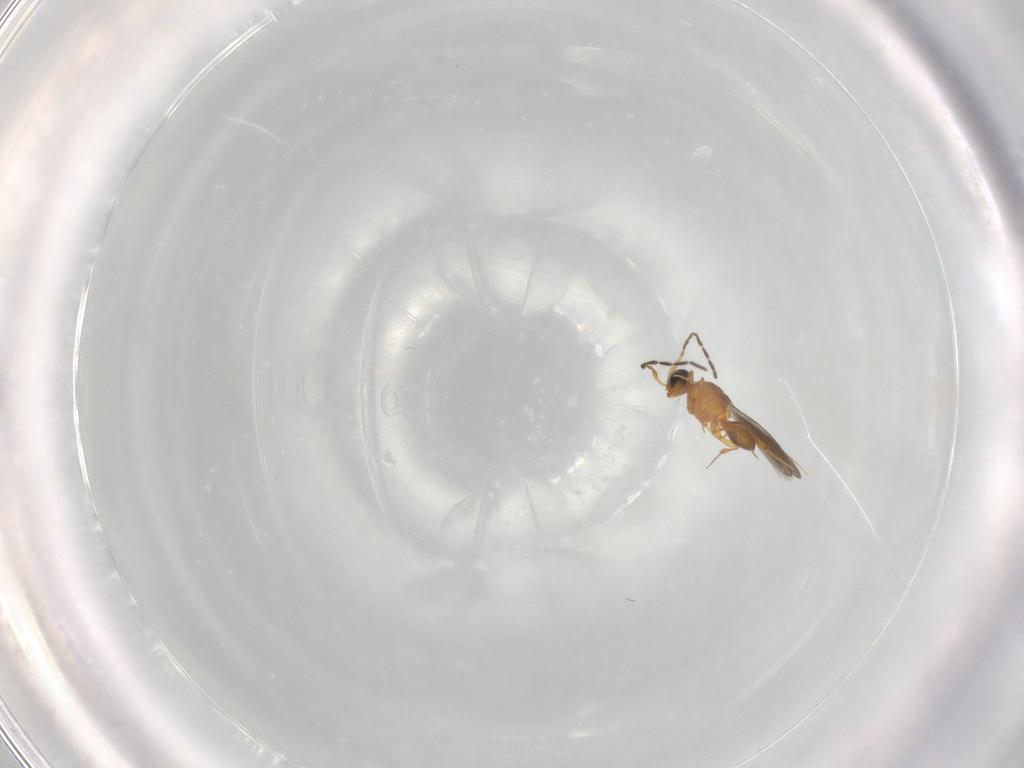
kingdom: Animalia
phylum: Arthropoda
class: Insecta
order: Hymenoptera
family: Platygastridae
